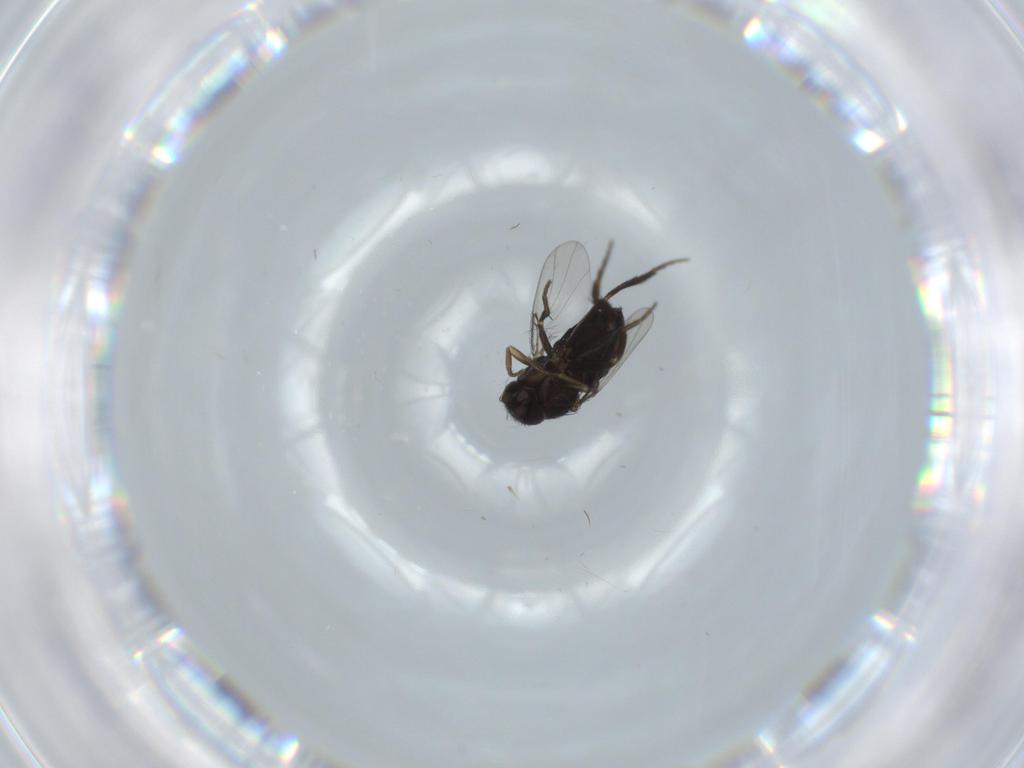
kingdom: Animalia
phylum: Arthropoda
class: Insecta
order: Diptera
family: Phoridae
